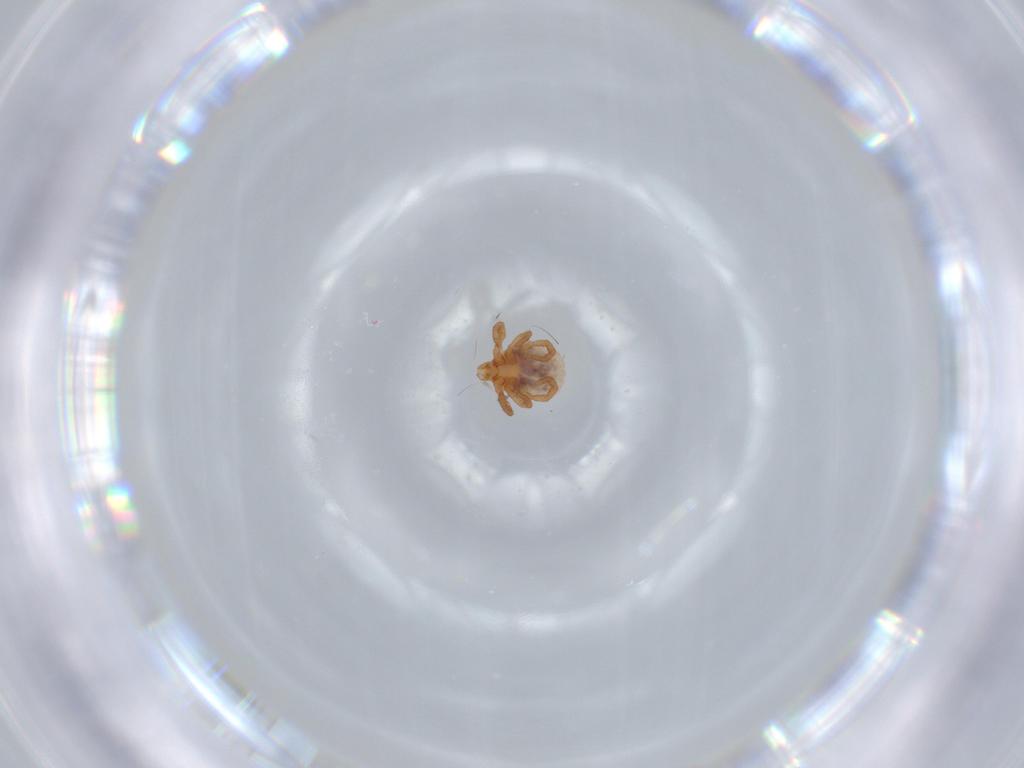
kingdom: Animalia
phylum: Arthropoda
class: Arachnida
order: Ixodida
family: Ixodidae
